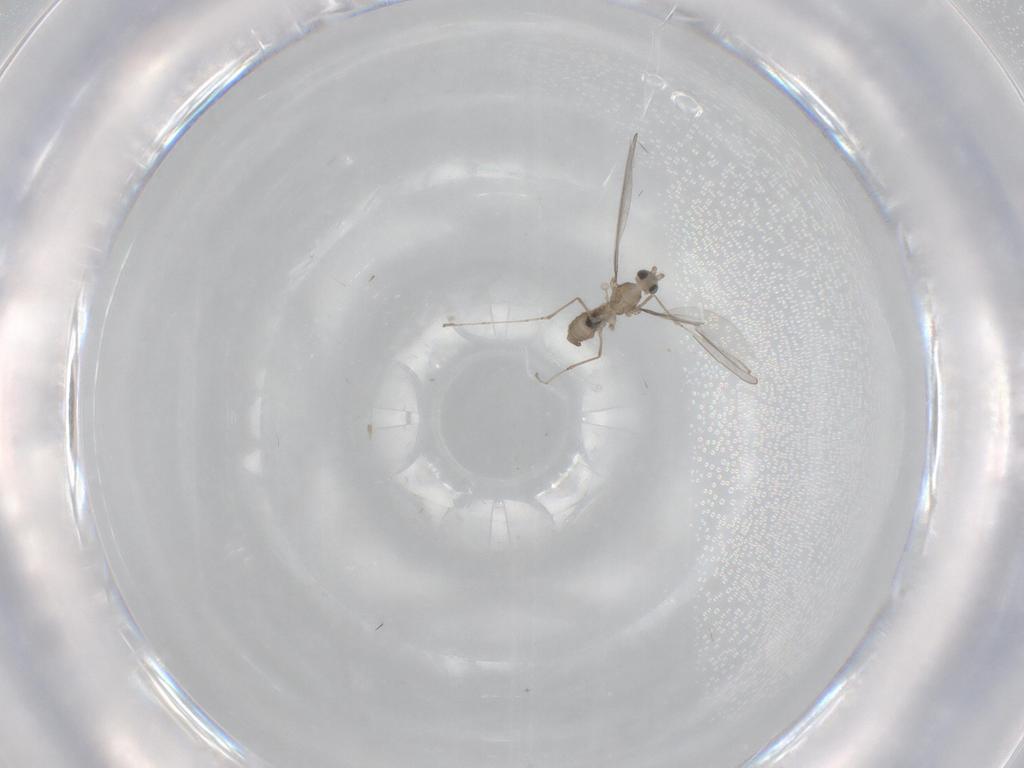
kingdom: Animalia
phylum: Arthropoda
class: Insecta
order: Diptera
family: Cecidomyiidae
